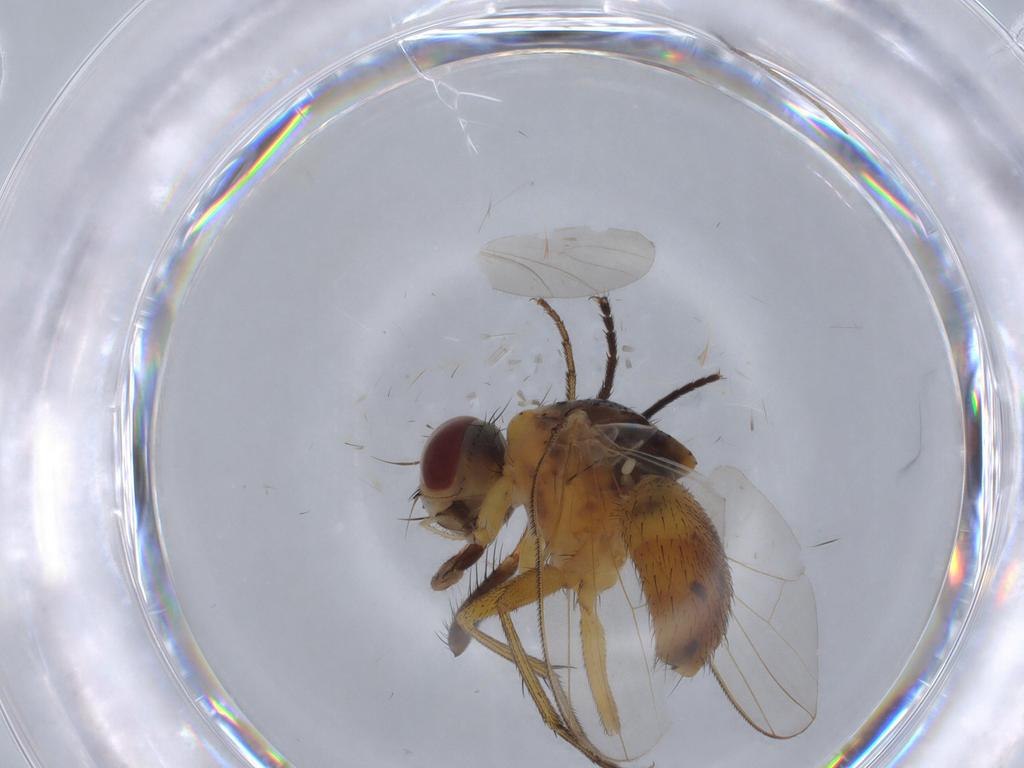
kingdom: Animalia
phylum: Arthropoda
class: Insecta
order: Diptera
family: Muscidae
